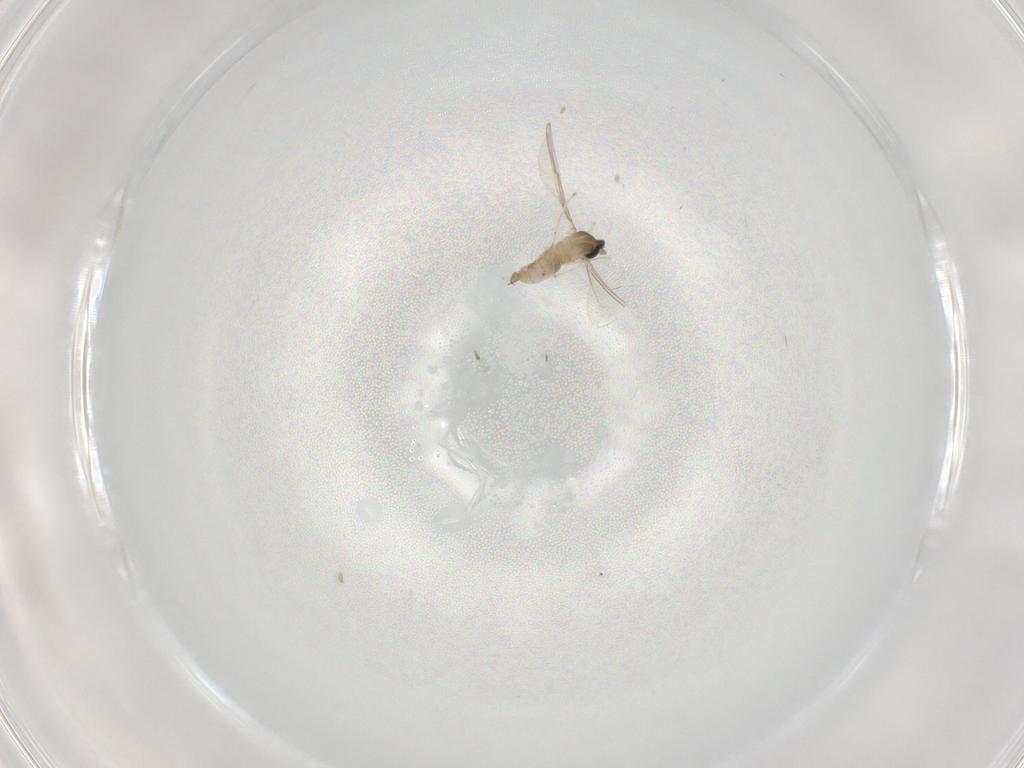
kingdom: Animalia
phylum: Arthropoda
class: Insecta
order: Diptera
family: Cecidomyiidae
